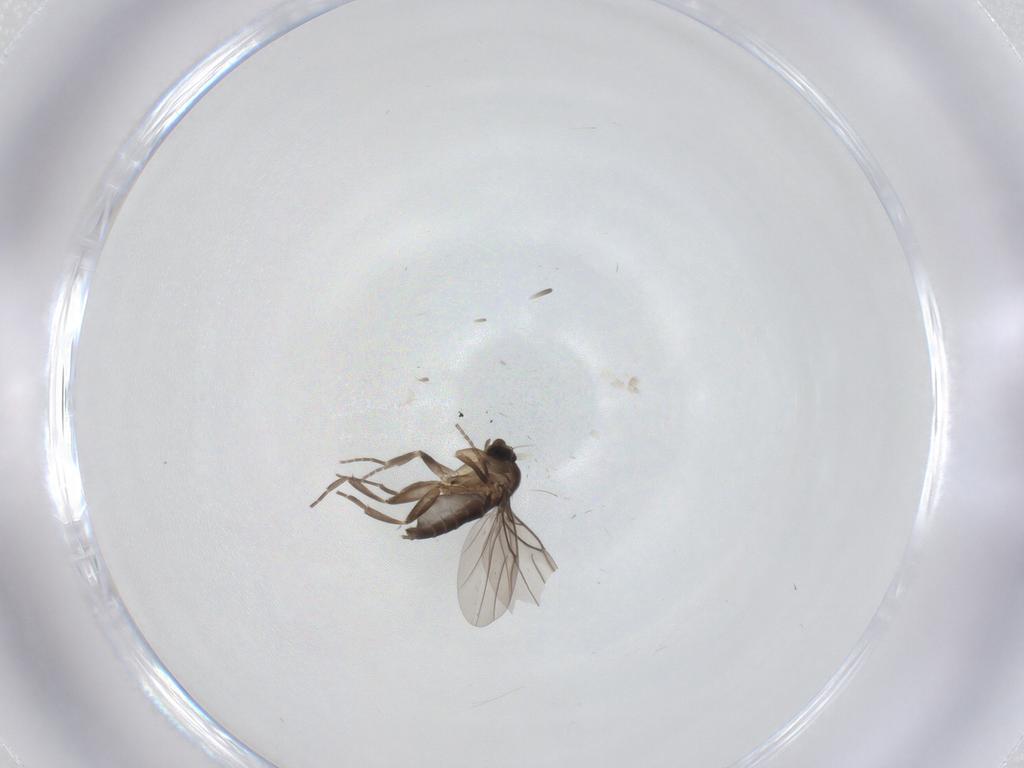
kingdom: Animalia
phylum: Arthropoda
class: Insecta
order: Diptera
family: Phoridae
